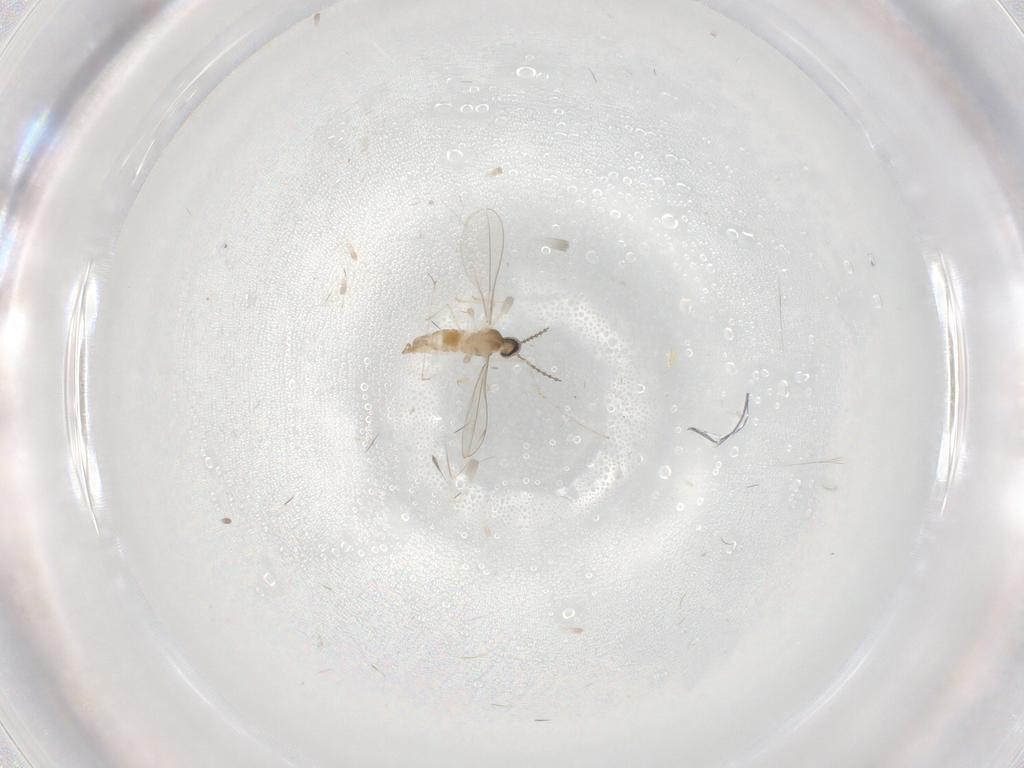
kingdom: Animalia
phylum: Arthropoda
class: Insecta
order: Diptera
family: Cecidomyiidae
